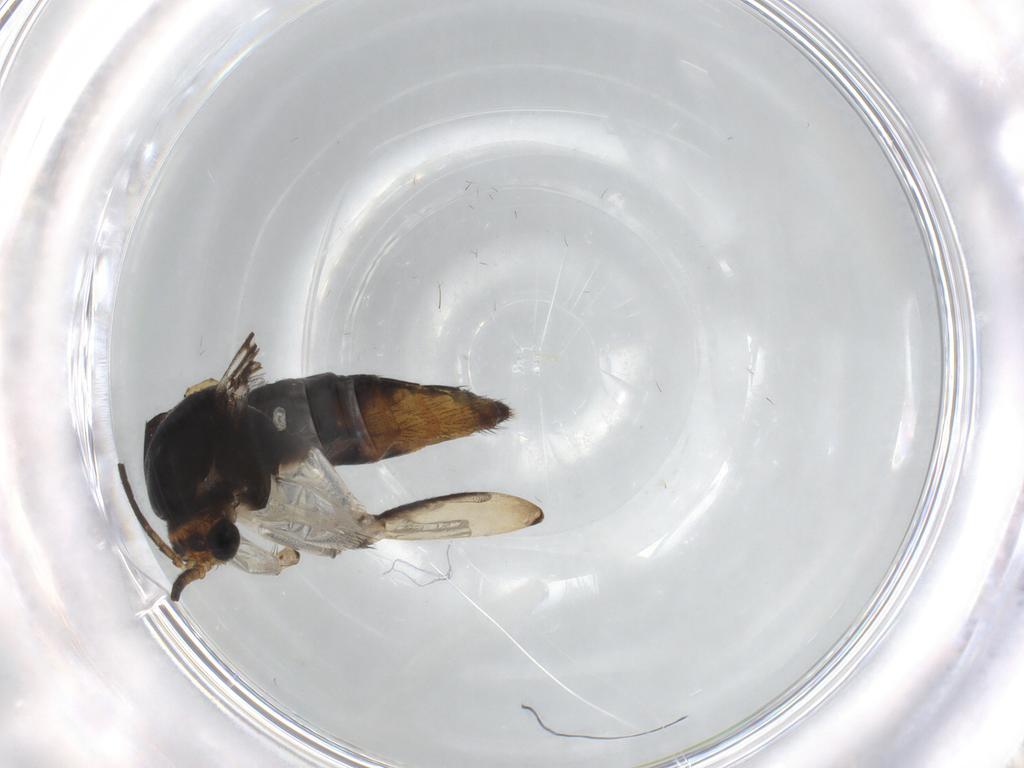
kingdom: Animalia
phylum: Arthropoda
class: Insecta
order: Diptera
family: Mycetophilidae
